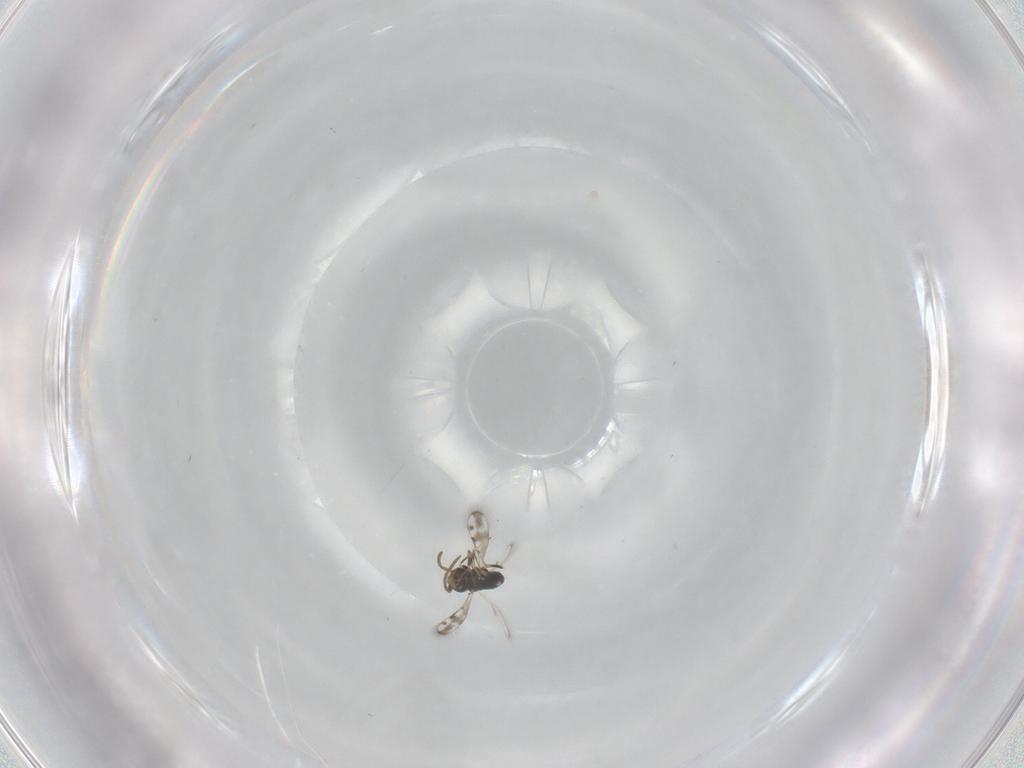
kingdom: Animalia
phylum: Arthropoda
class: Insecta
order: Hymenoptera
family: Azotidae
